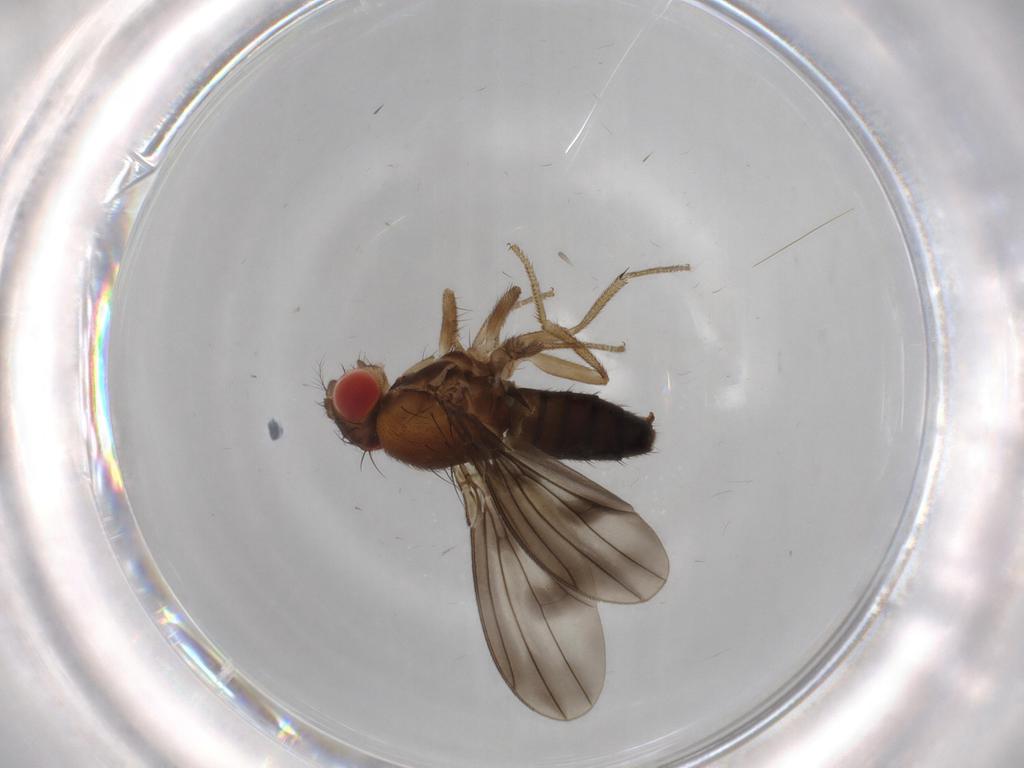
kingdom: Animalia
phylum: Arthropoda
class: Insecta
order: Diptera
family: Drosophilidae
